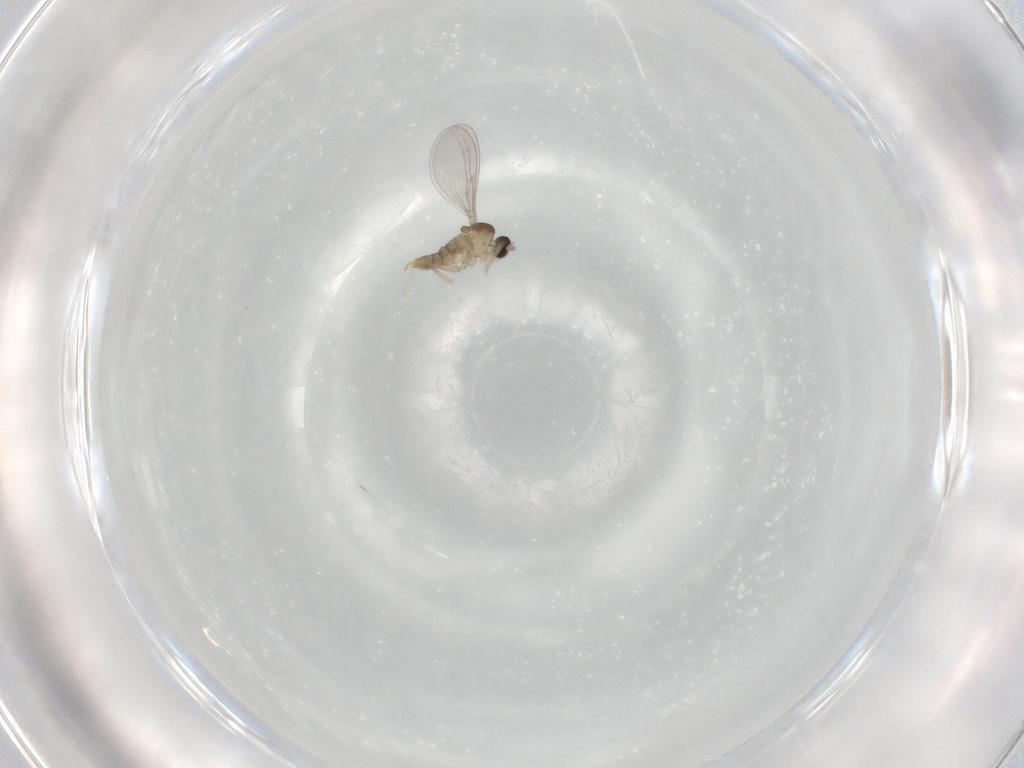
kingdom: Animalia
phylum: Arthropoda
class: Insecta
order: Diptera
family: Cecidomyiidae
